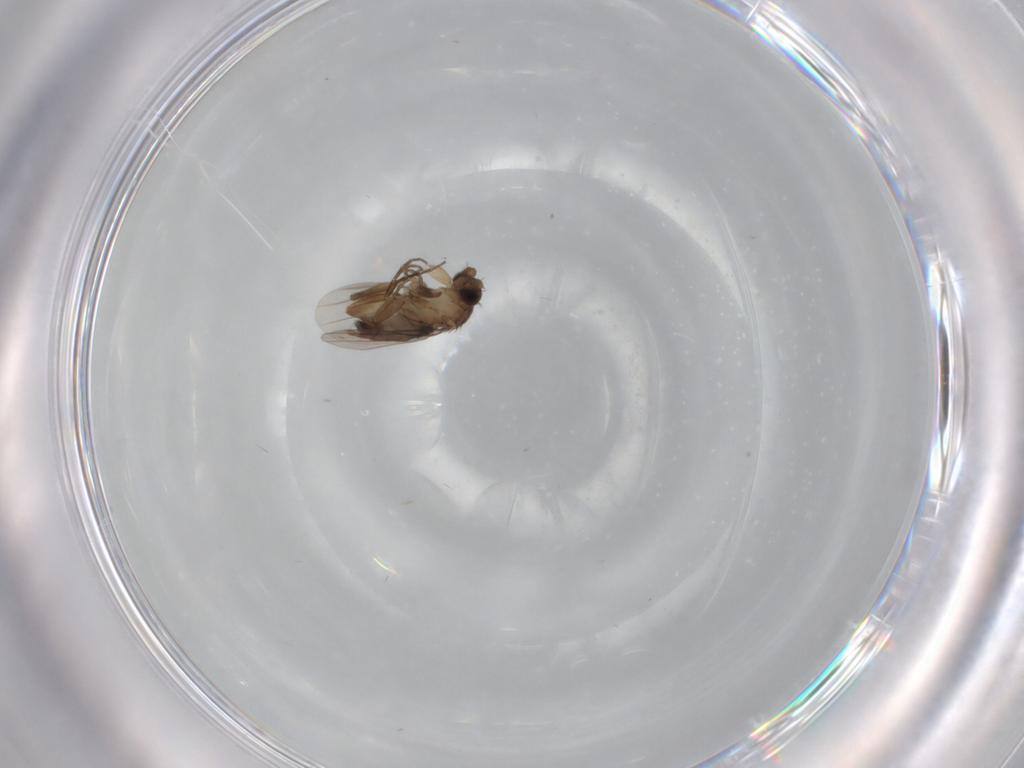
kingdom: Animalia
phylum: Arthropoda
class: Insecta
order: Diptera
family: Phoridae
